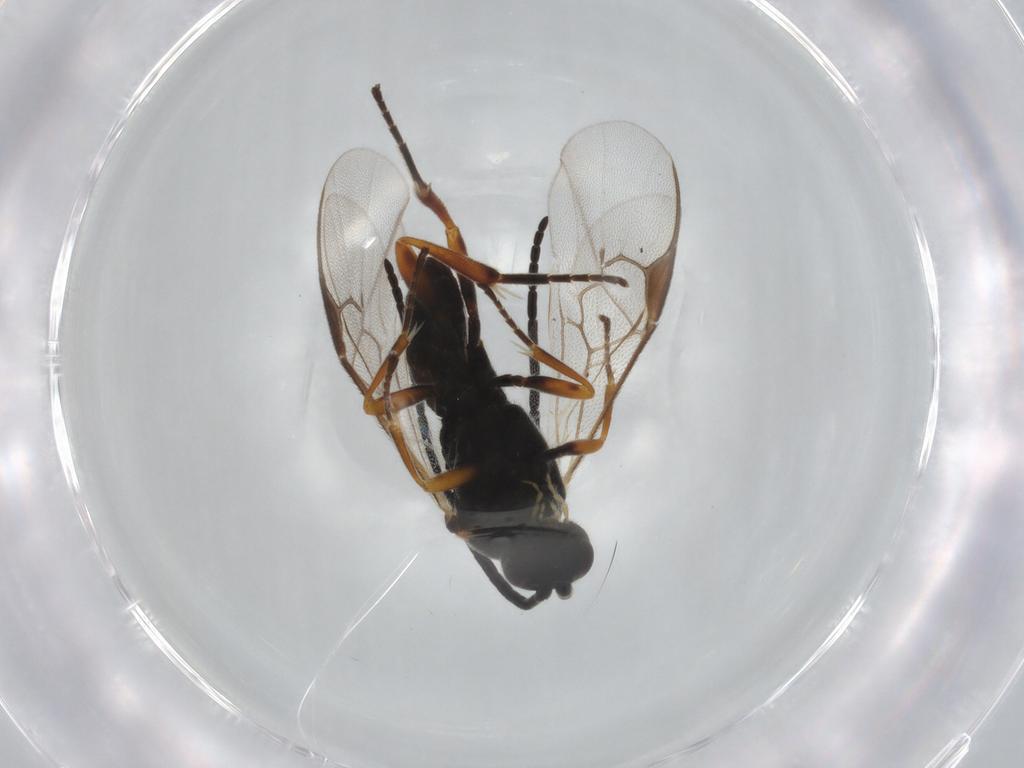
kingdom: Animalia
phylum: Arthropoda
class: Insecta
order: Hymenoptera
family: Braconidae
